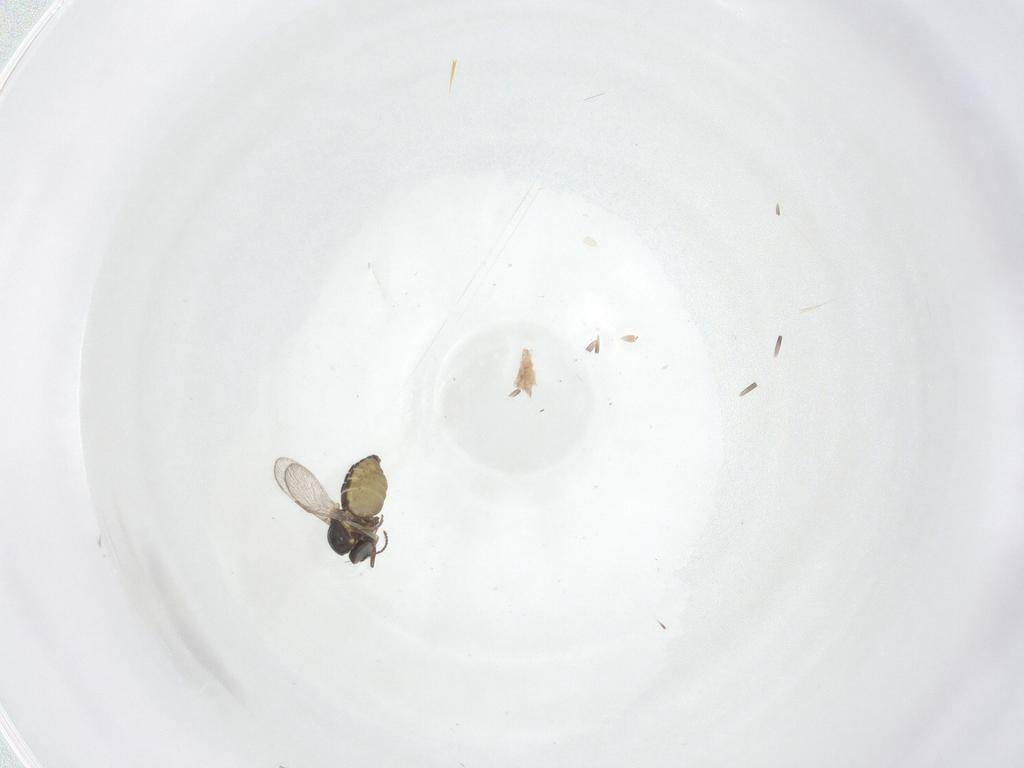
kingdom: Animalia
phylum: Arthropoda
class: Insecta
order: Diptera
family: Ceratopogonidae
